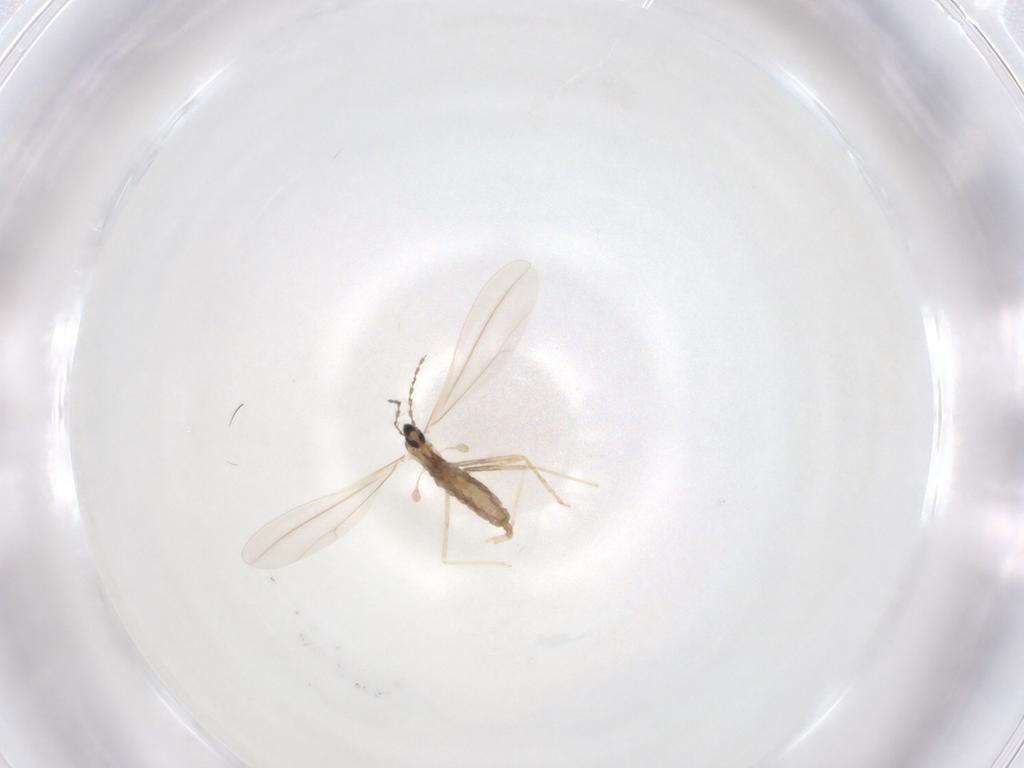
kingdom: Animalia
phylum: Arthropoda
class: Insecta
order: Diptera
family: Cecidomyiidae
